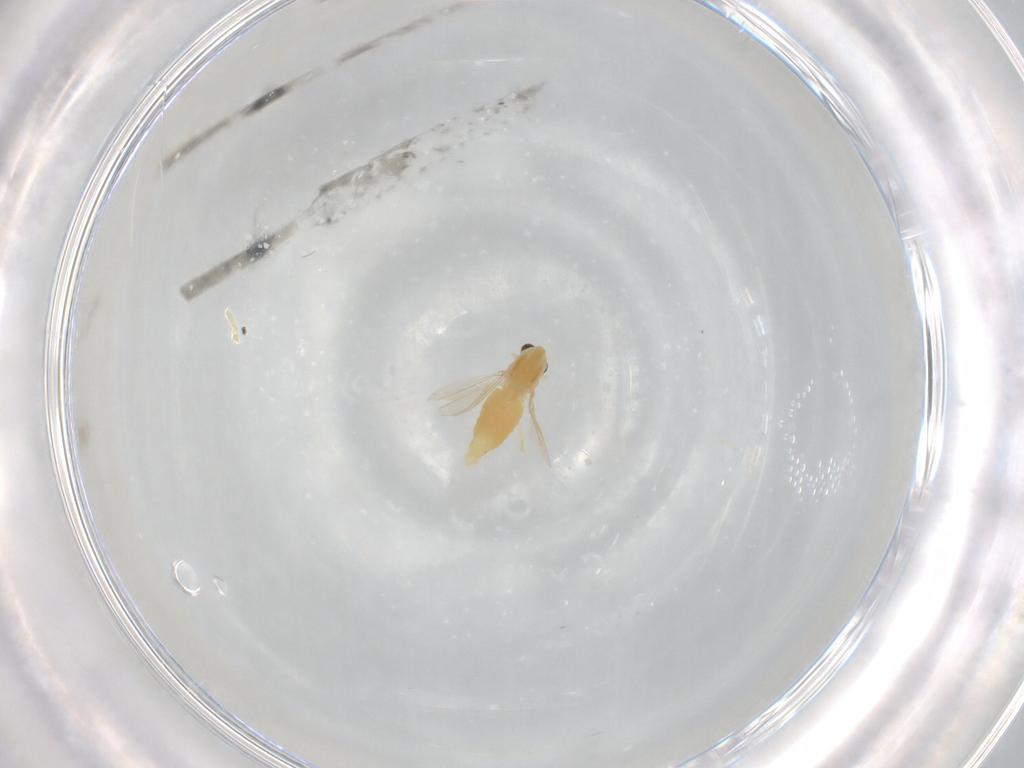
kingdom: Animalia
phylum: Arthropoda
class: Insecta
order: Diptera
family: Chironomidae
